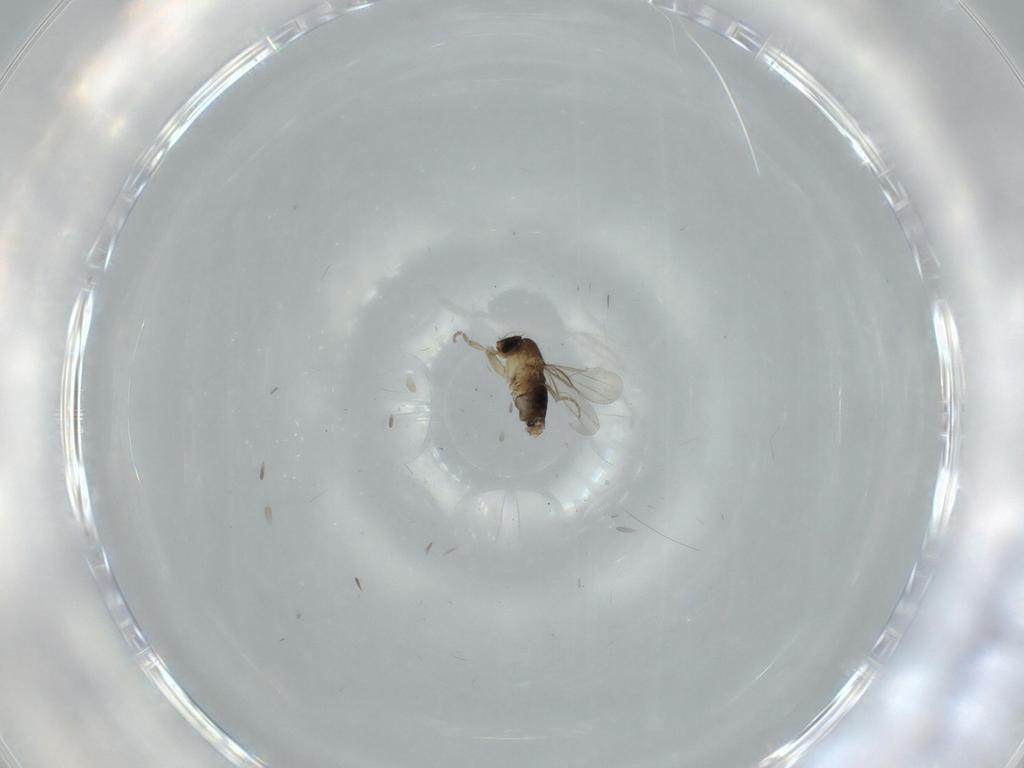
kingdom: Animalia
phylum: Arthropoda
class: Insecta
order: Diptera
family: Phoridae
